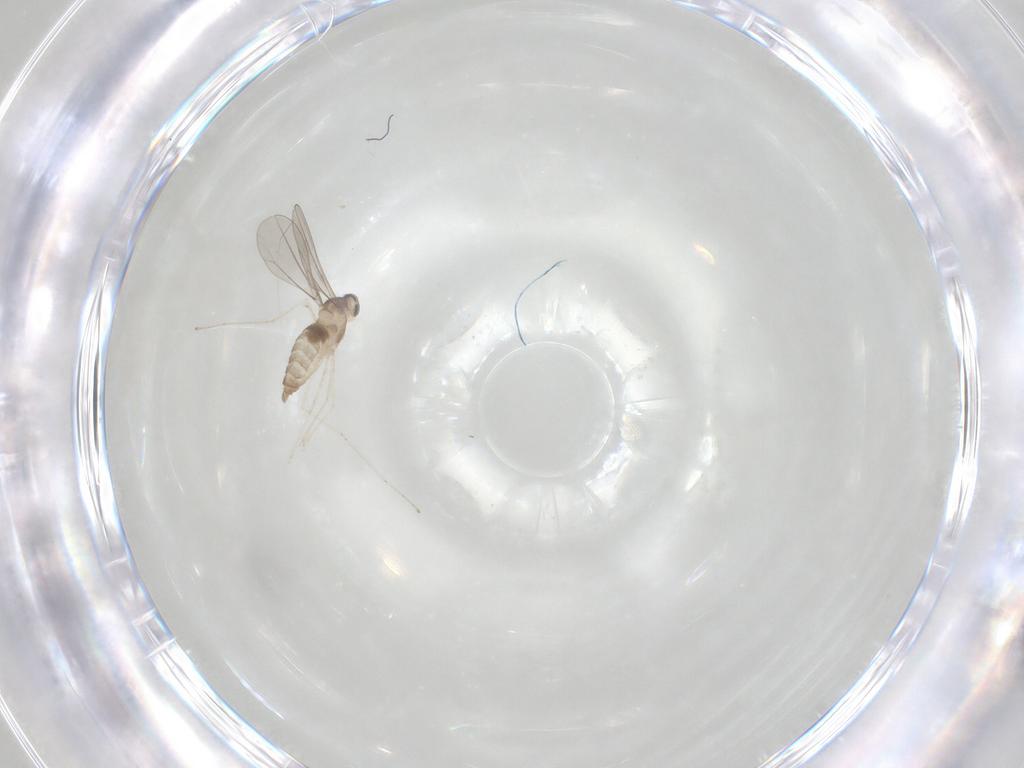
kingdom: Animalia
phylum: Arthropoda
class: Insecta
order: Diptera
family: Cecidomyiidae
